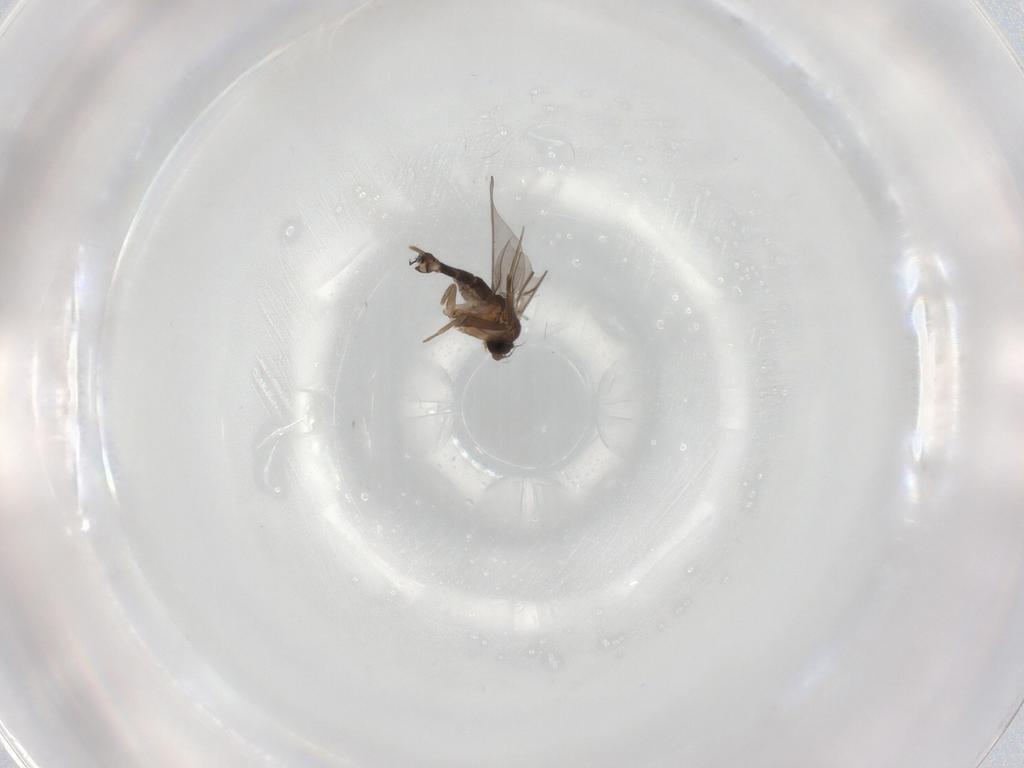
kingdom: Animalia
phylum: Arthropoda
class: Insecta
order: Diptera
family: Phoridae
